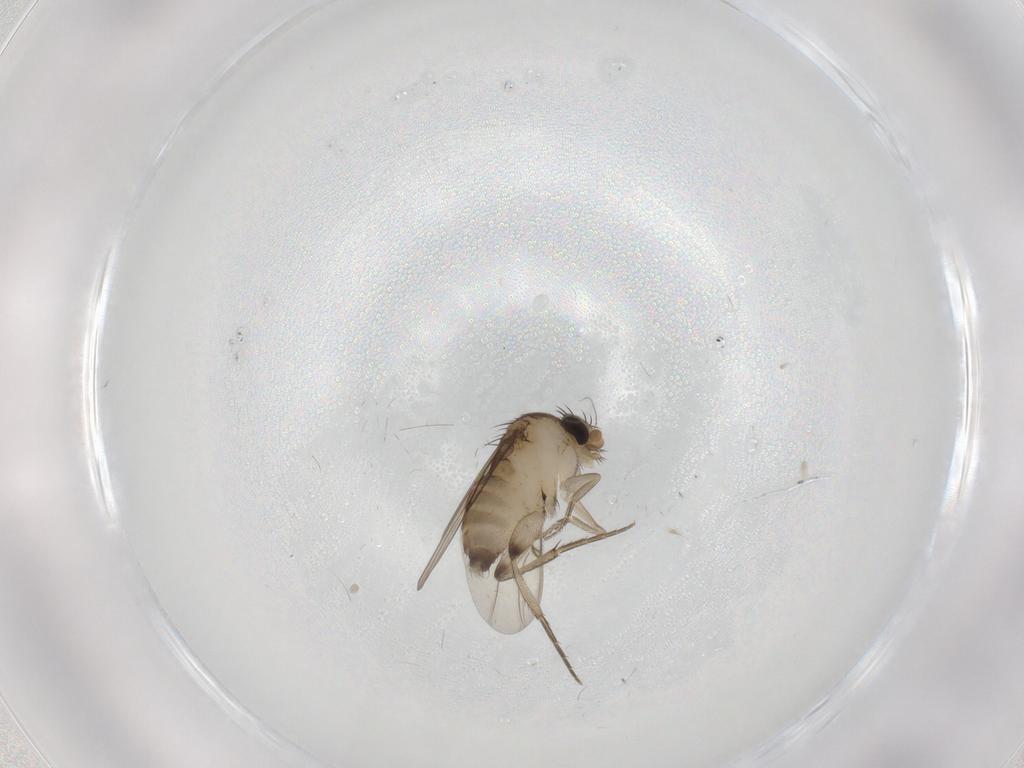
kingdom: Animalia
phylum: Arthropoda
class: Insecta
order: Diptera
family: Phoridae
